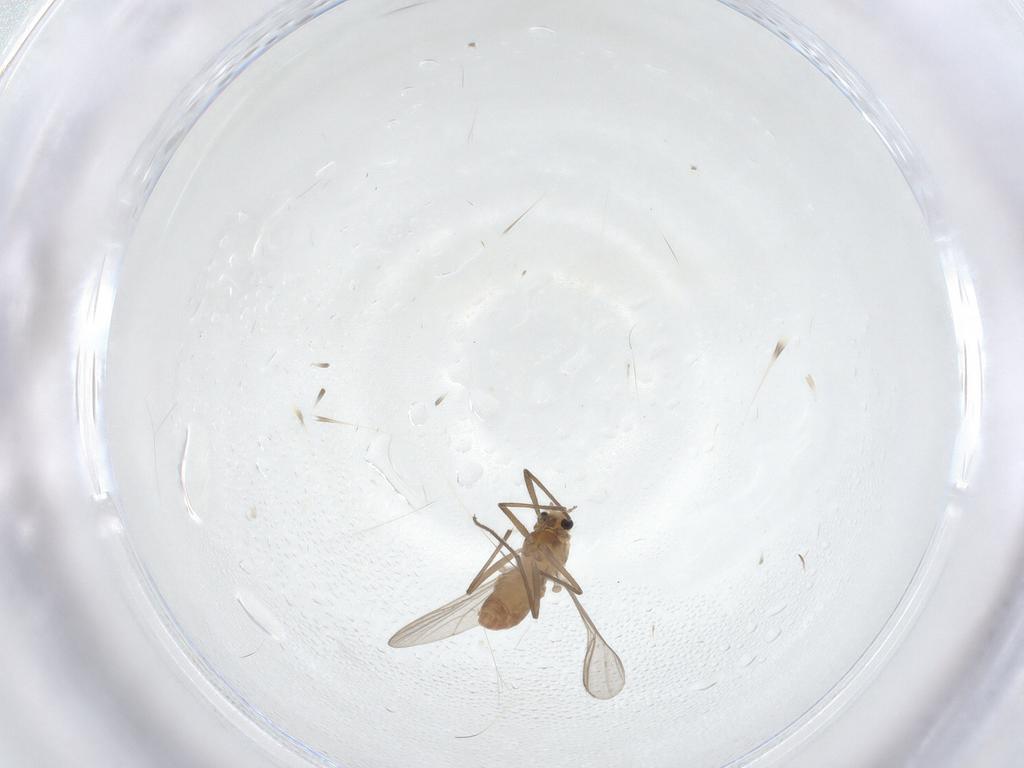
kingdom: Animalia
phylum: Arthropoda
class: Insecta
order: Diptera
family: Chironomidae
